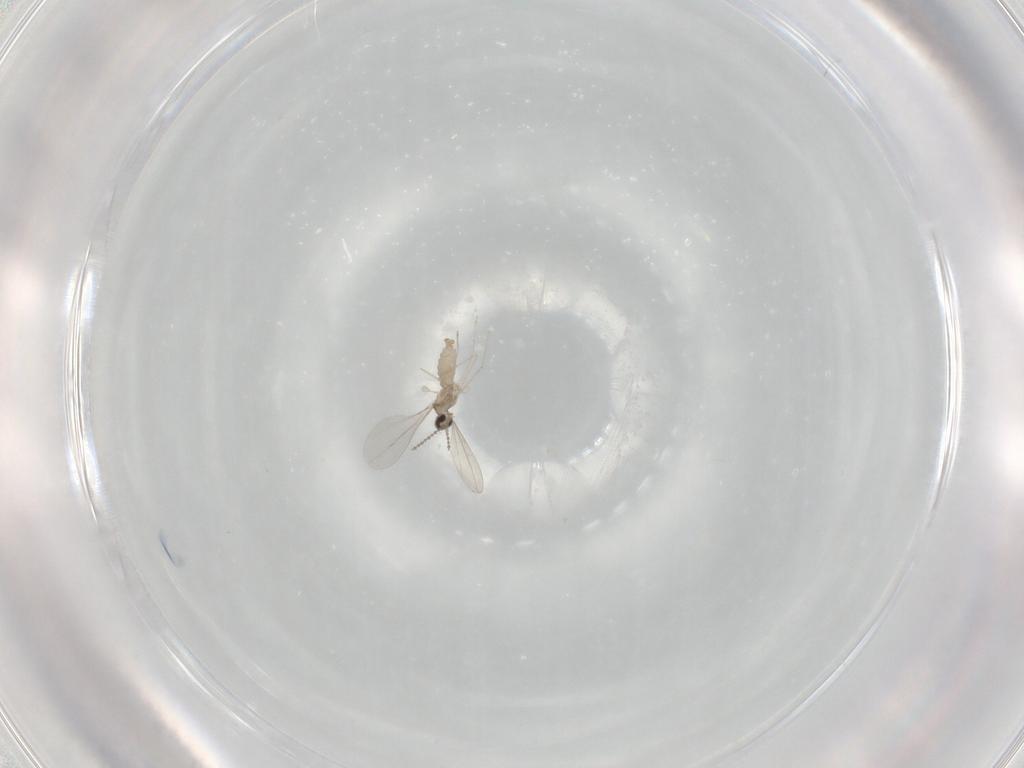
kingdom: Animalia
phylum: Arthropoda
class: Insecta
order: Diptera
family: Cecidomyiidae
